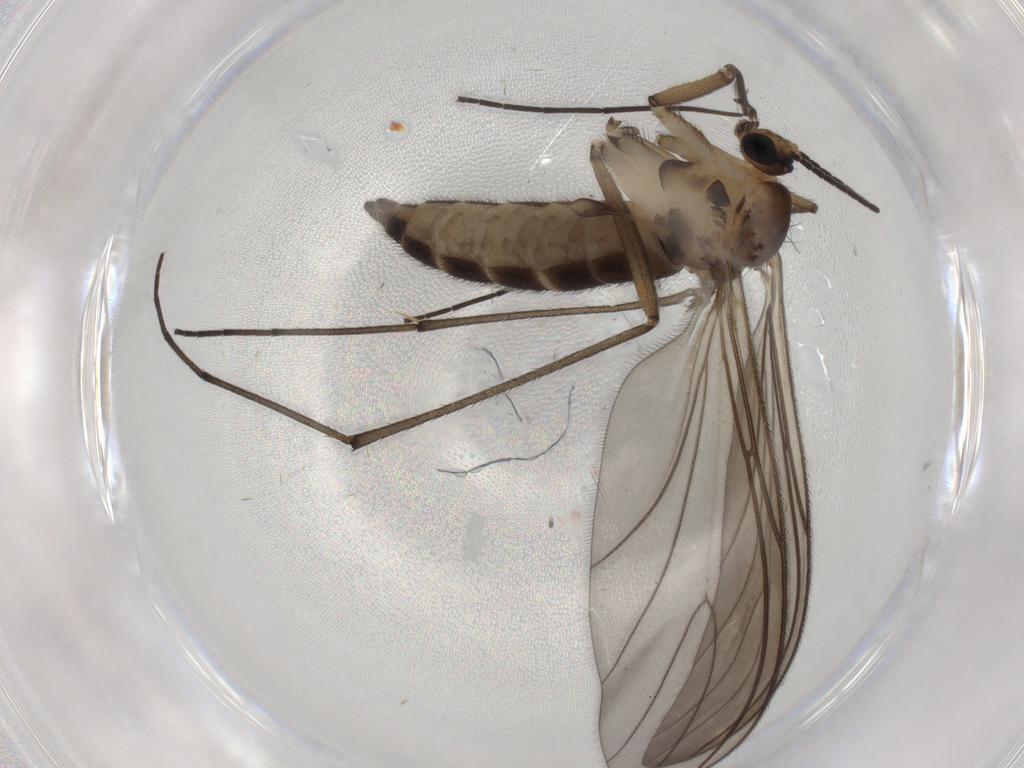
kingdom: Animalia
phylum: Arthropoda
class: Insecta
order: Diptera
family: Sciaridae
